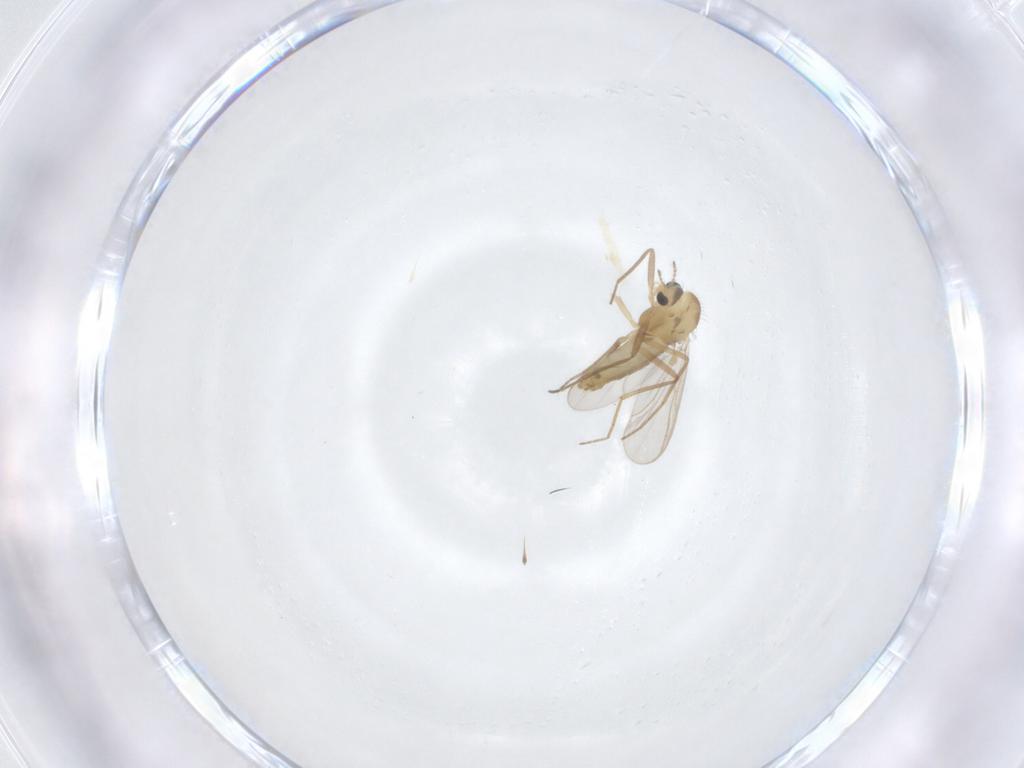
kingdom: Animalia
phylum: Arthropoda
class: Insecta
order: Diptera
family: Chironomidae
